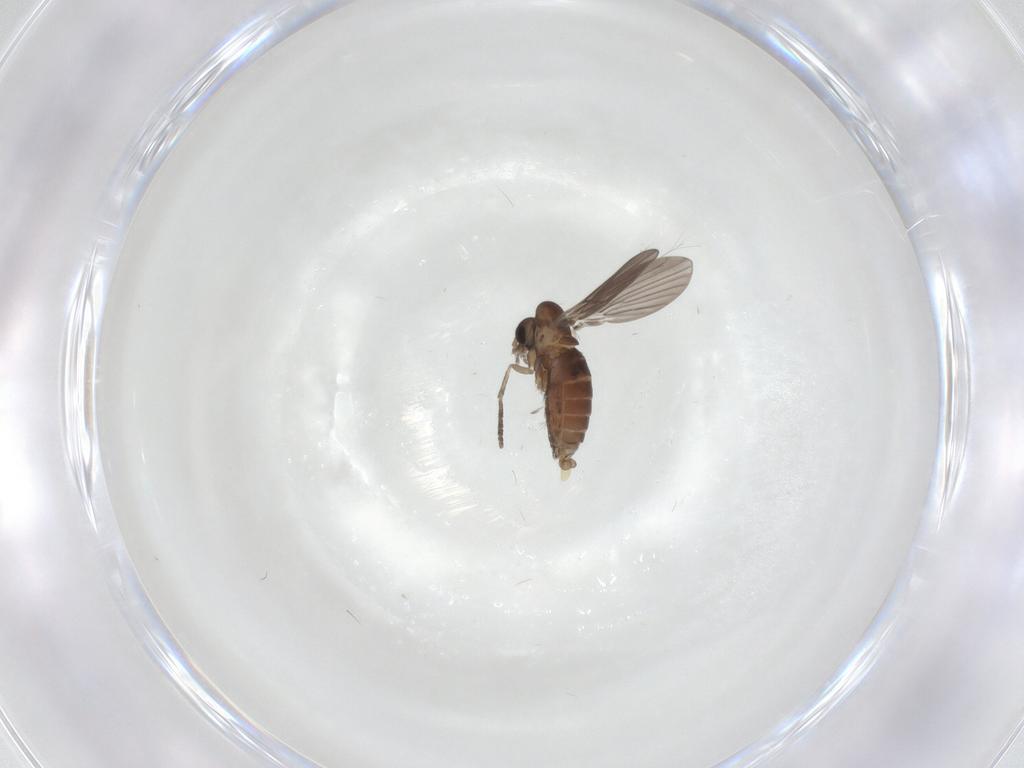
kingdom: Animalia
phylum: Arthropoda
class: Insecta
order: Diptera
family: Sciaridae
